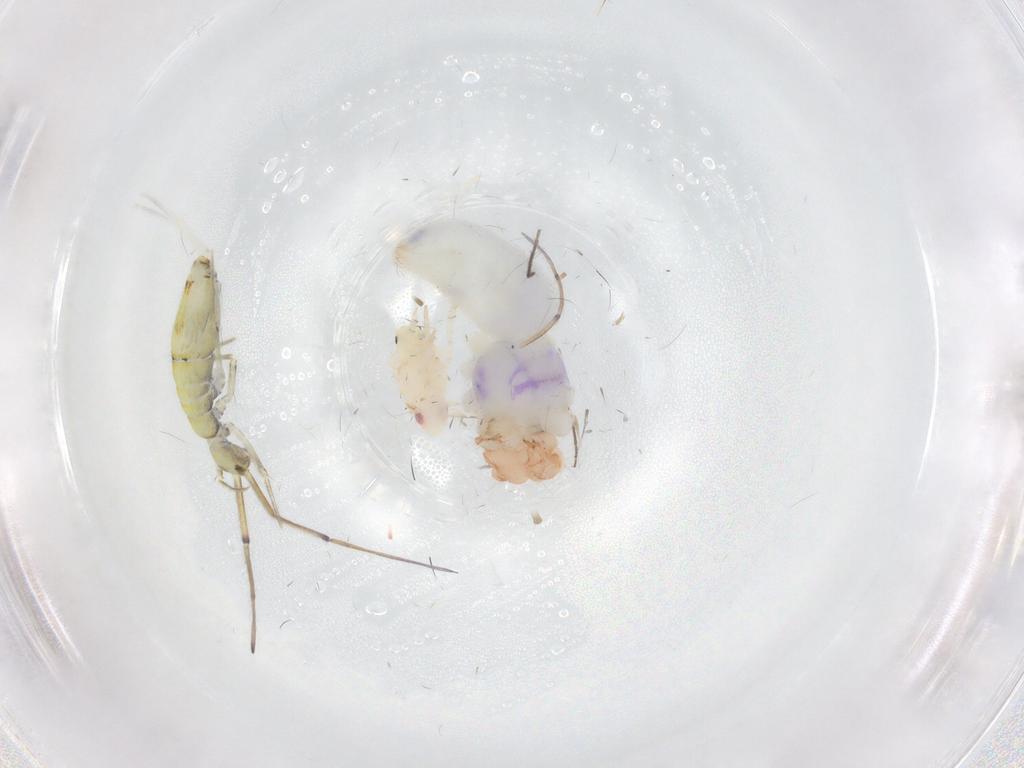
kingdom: Animalia
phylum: Arthropoda
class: Arachnida
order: Araneae
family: Pholcidae
